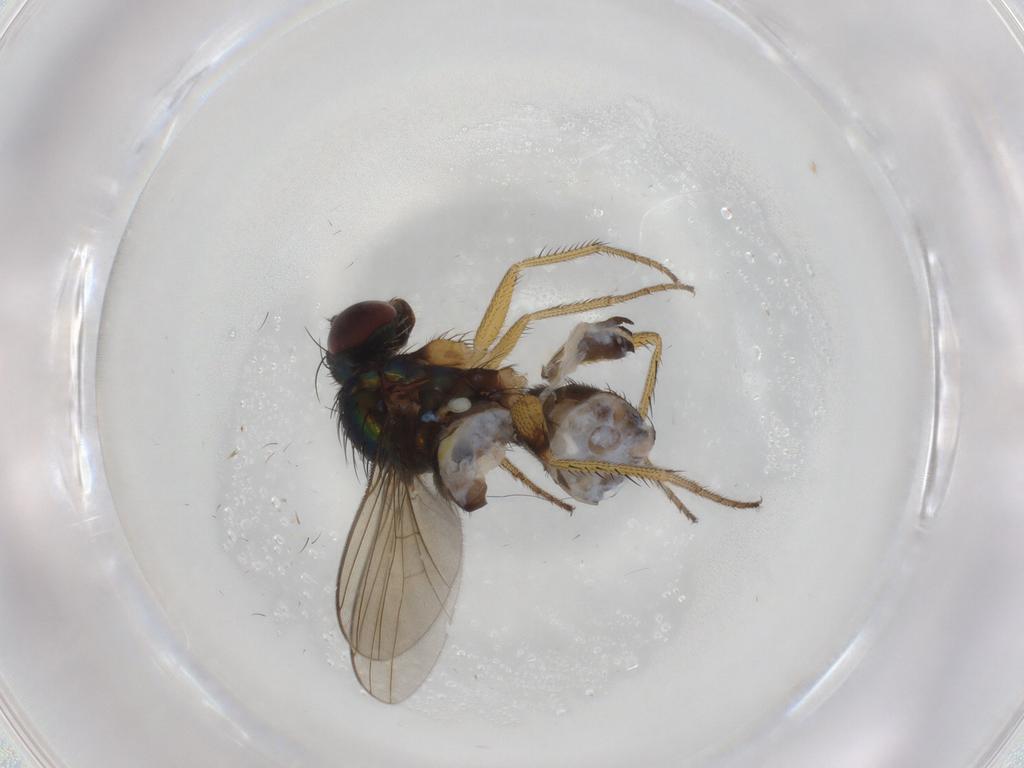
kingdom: Animalia
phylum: Arthropoda
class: Insecta
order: Diptera
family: Dolichopodidae
